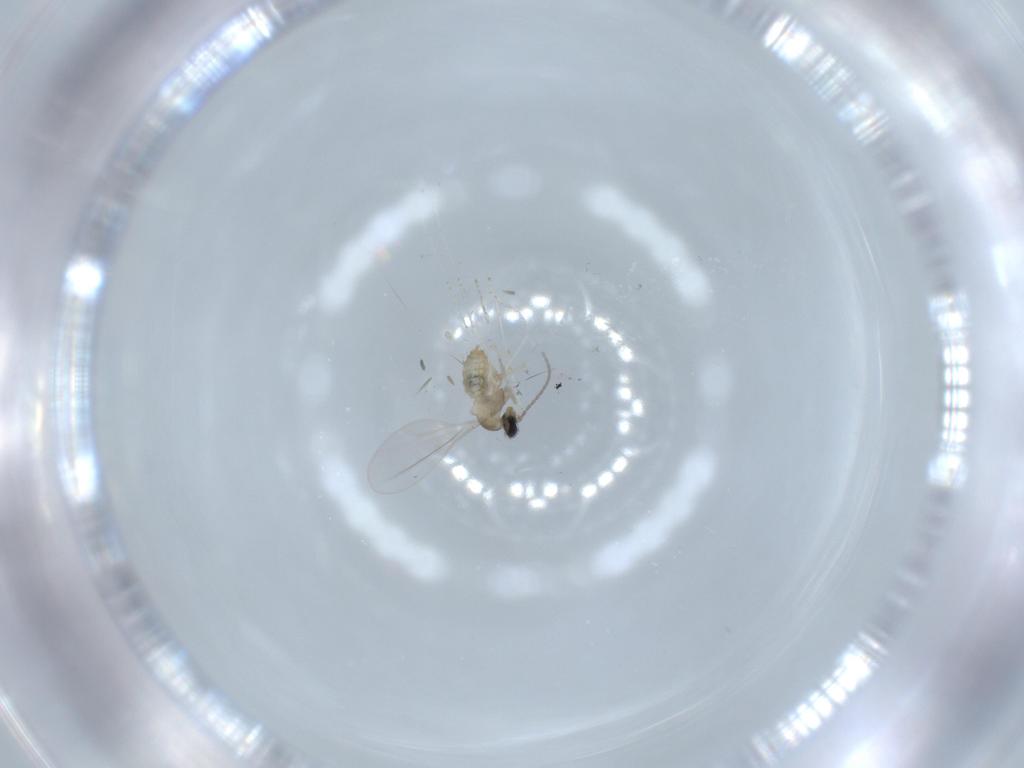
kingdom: Animalia
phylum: Arthropoda
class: Insecta
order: Diptera
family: Cecidomyiidae
